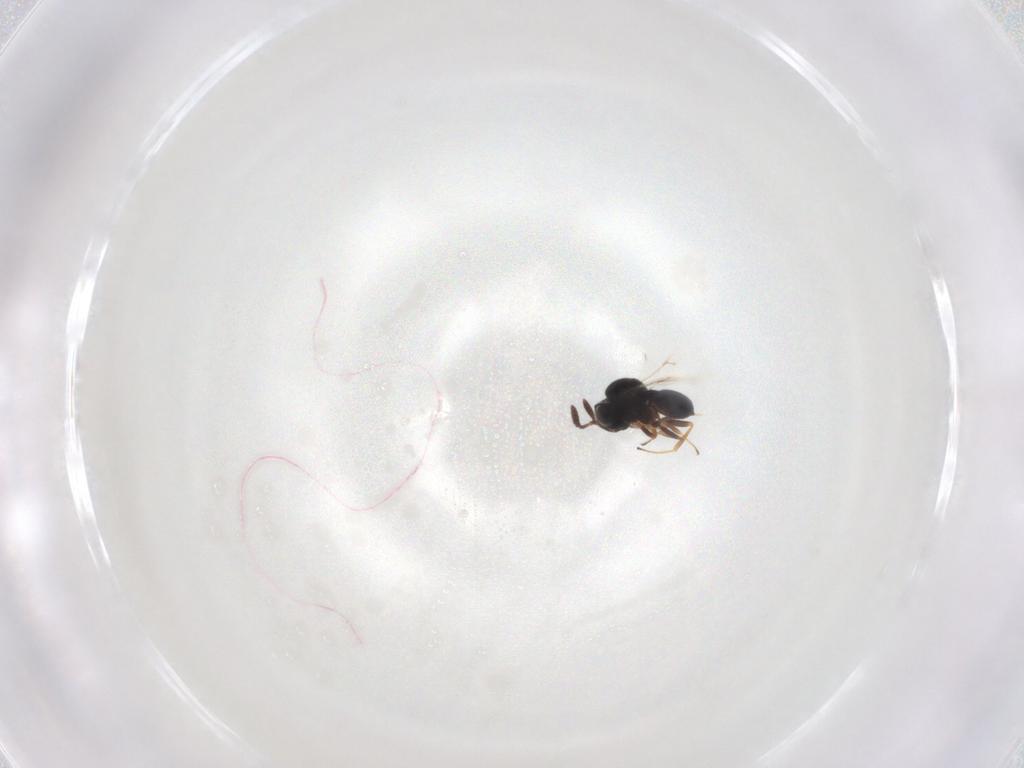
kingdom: Animalia
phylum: Arthropoda
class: Insecta
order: Hymenoptera
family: Scelionidae
